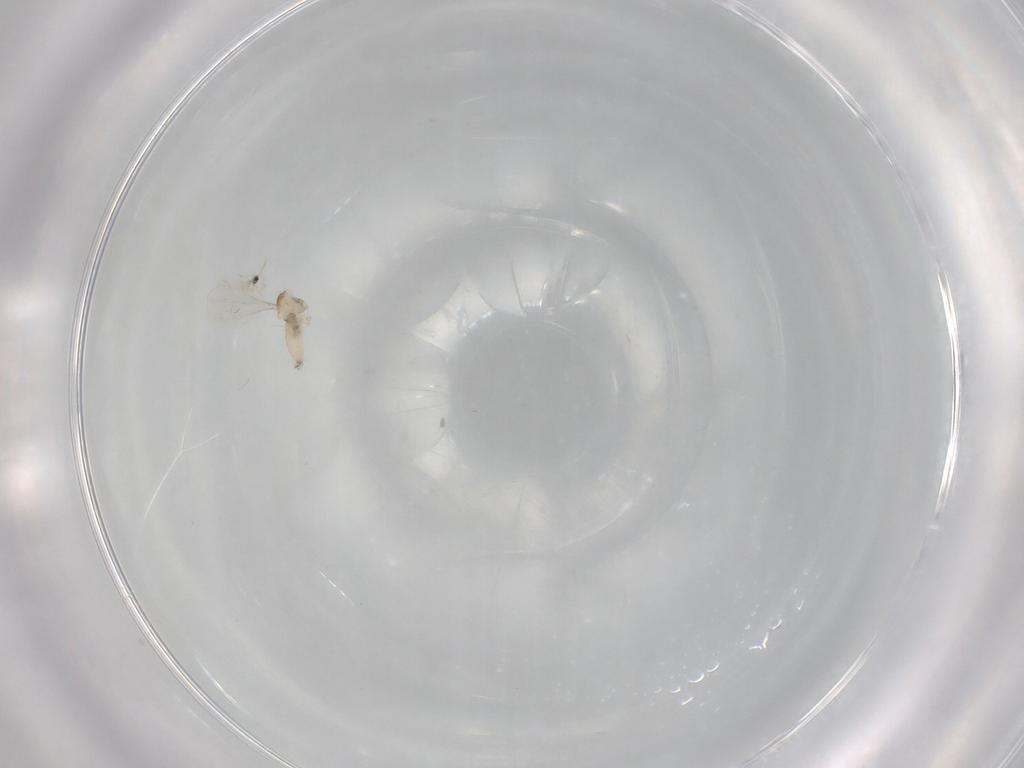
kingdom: Animalia
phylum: Arthropoda
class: Insecta
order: Diptera
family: Cecidomyiidae
